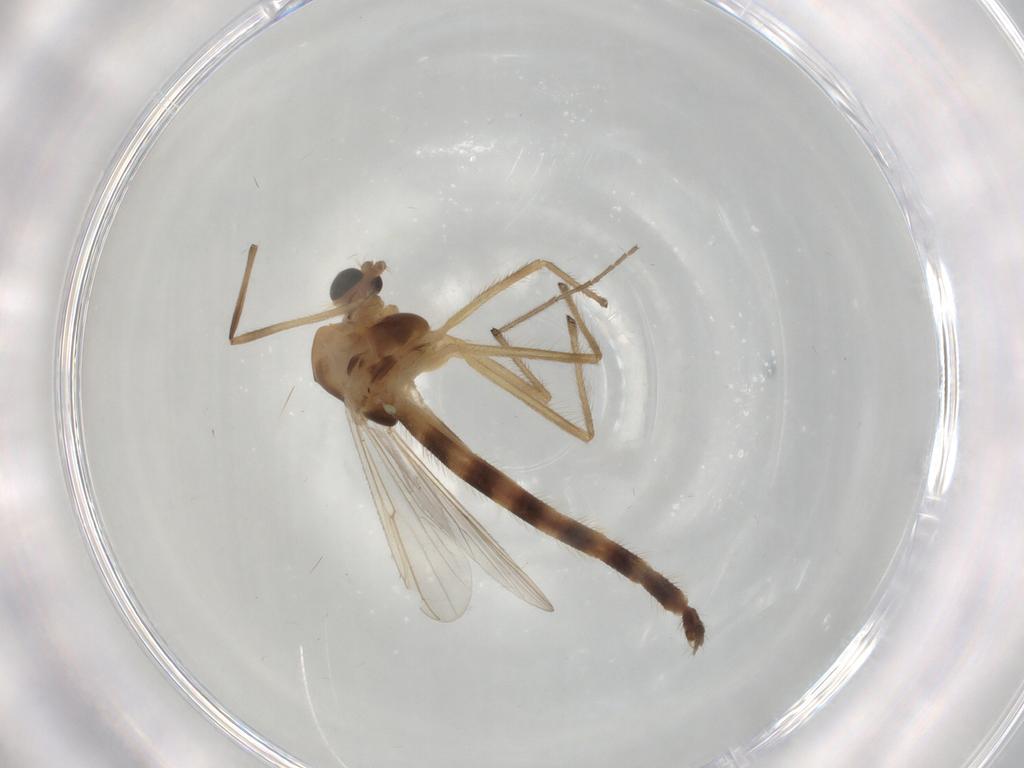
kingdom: Animalia
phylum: Arthropoda
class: Insecta
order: Diptera
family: Chironomidae
